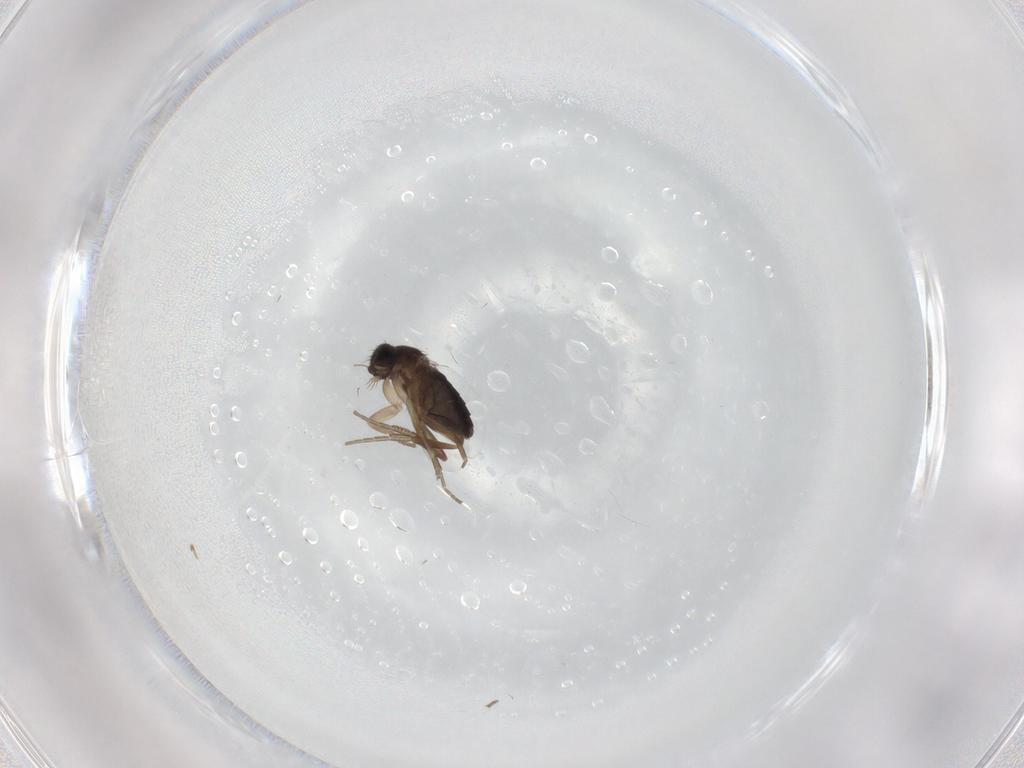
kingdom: Animalia
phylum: Arthropoda
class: Insecta
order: Diptera
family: Phoridae
